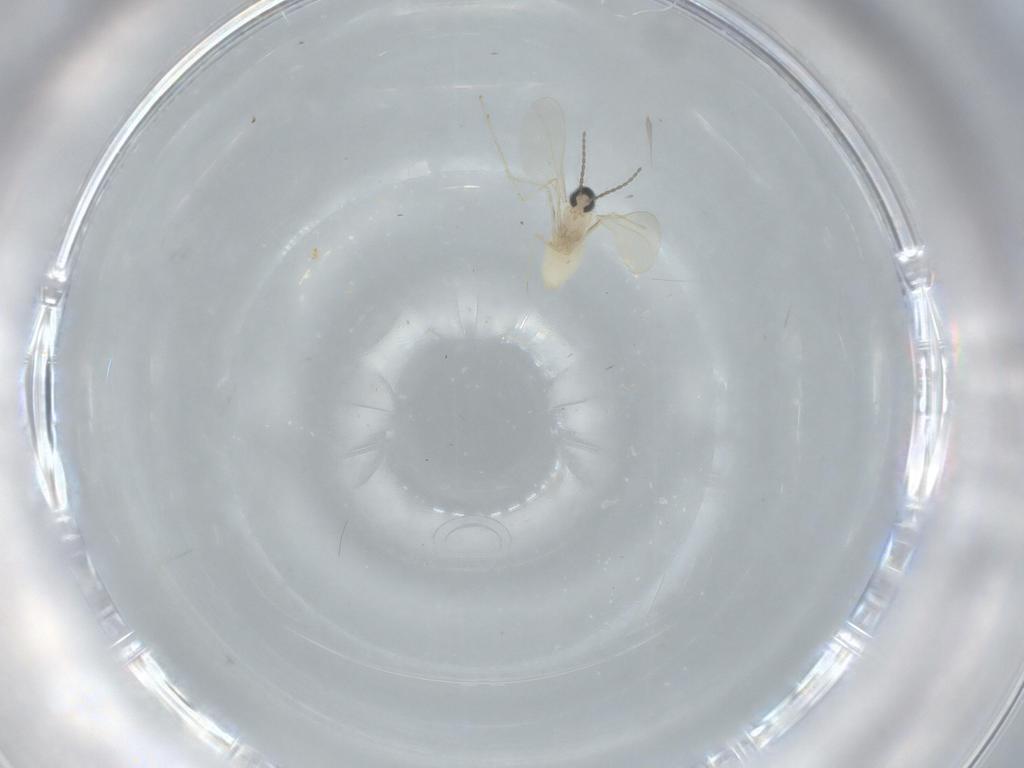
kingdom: Animalia
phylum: Arthropoda
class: Insecta
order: Diptera
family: Cecidomyiidae
